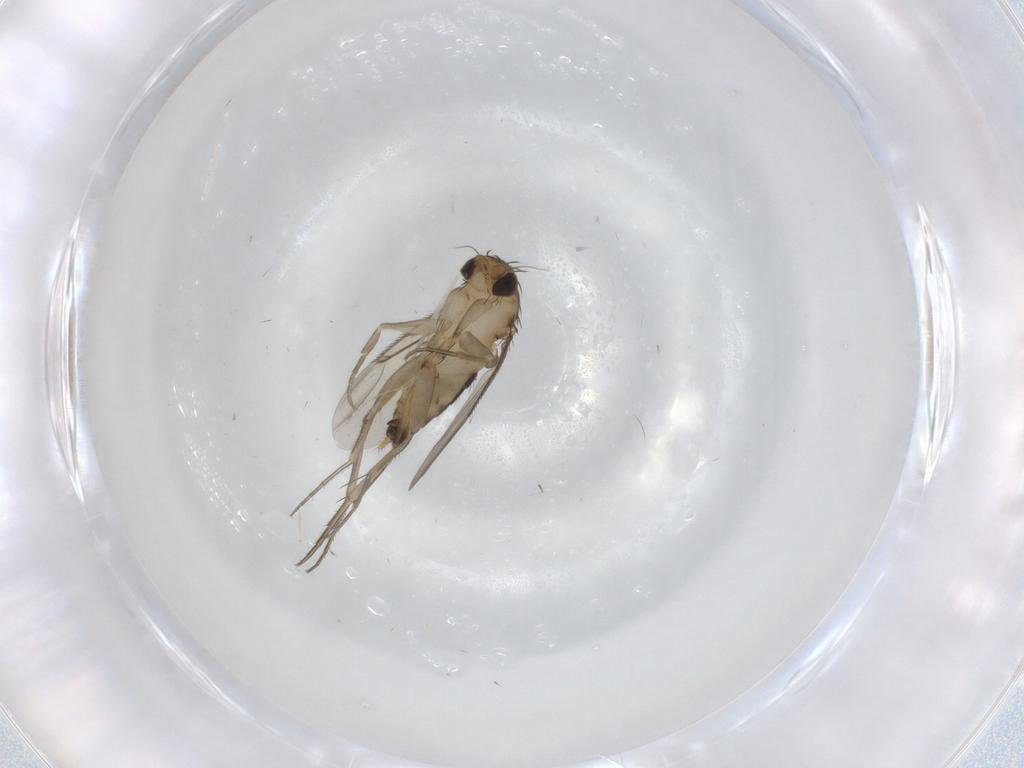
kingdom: Animalia
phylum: Arthropoda
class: Insecta
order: Diptera
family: Phoridae
